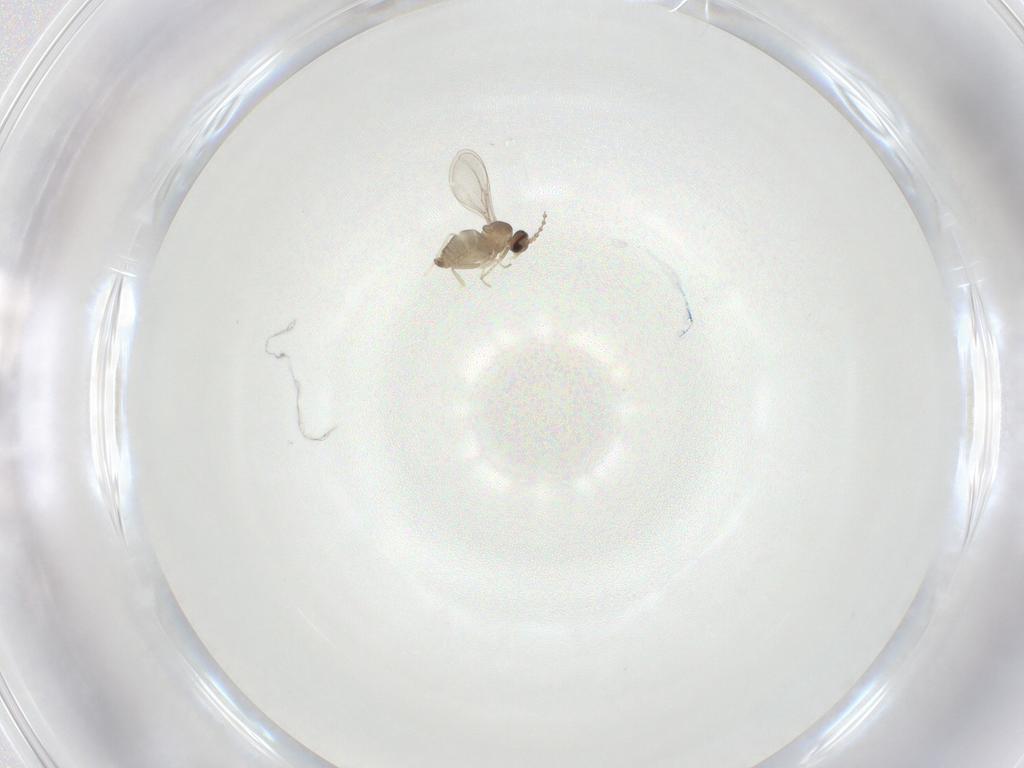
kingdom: Animalia
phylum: Arthropoda
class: Insecta
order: Diptera
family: Cecidomyiidae
